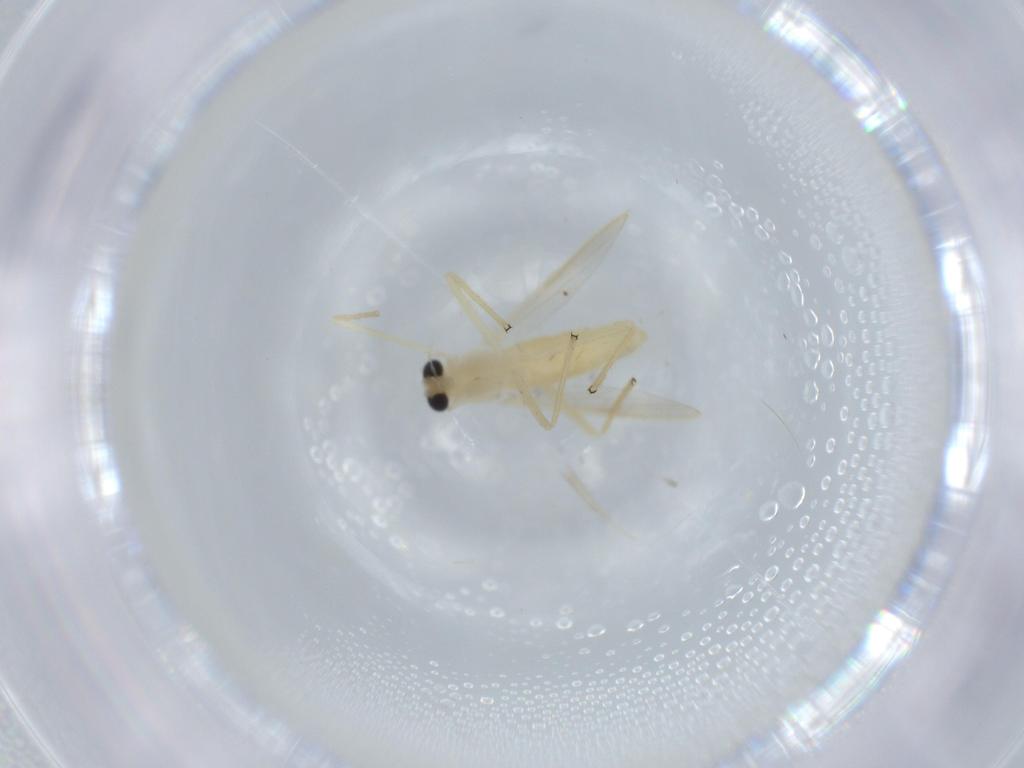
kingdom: Animalia
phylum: Arthropoda
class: Insecta
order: Diptera
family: Chironomidae
